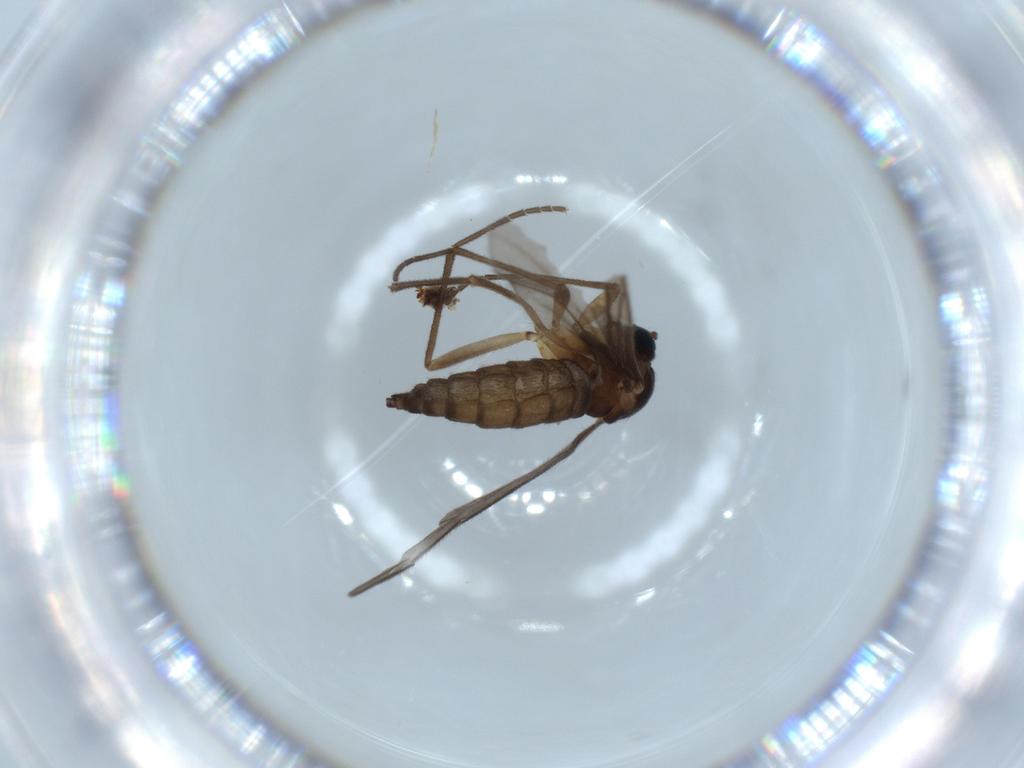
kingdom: Animalia
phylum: Arthropoda
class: Insecta
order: Diptera
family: Sciaridae
